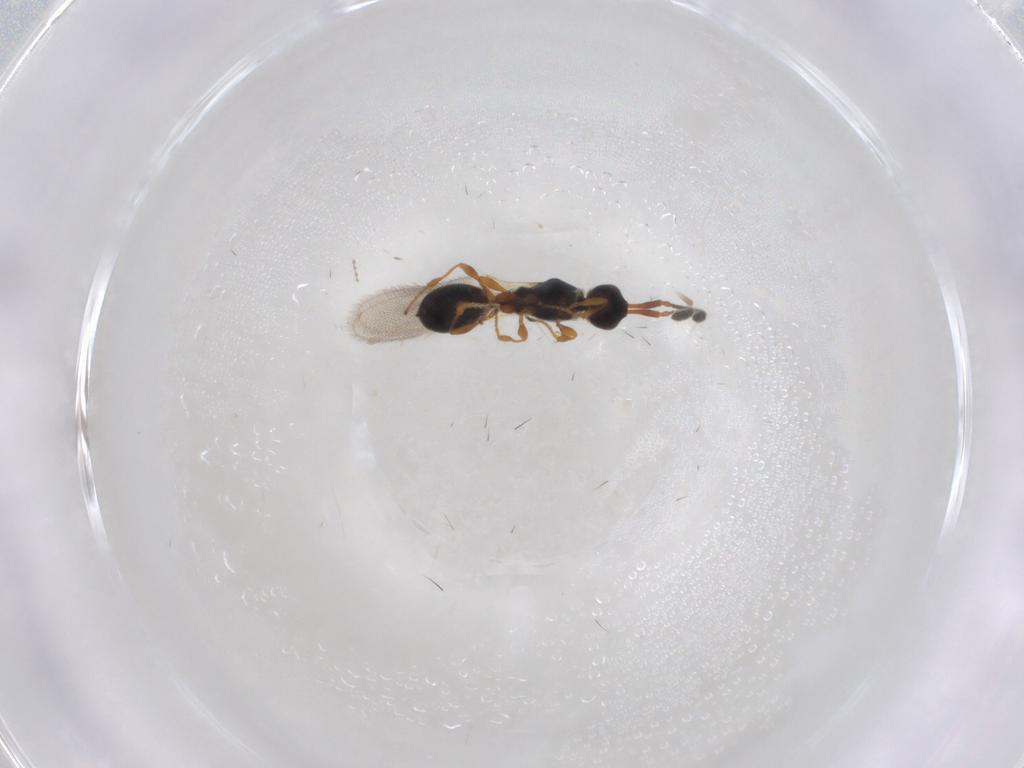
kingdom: Animalia
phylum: Arthropoda
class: Insecta
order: Hymenoptera
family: Diapriidae
